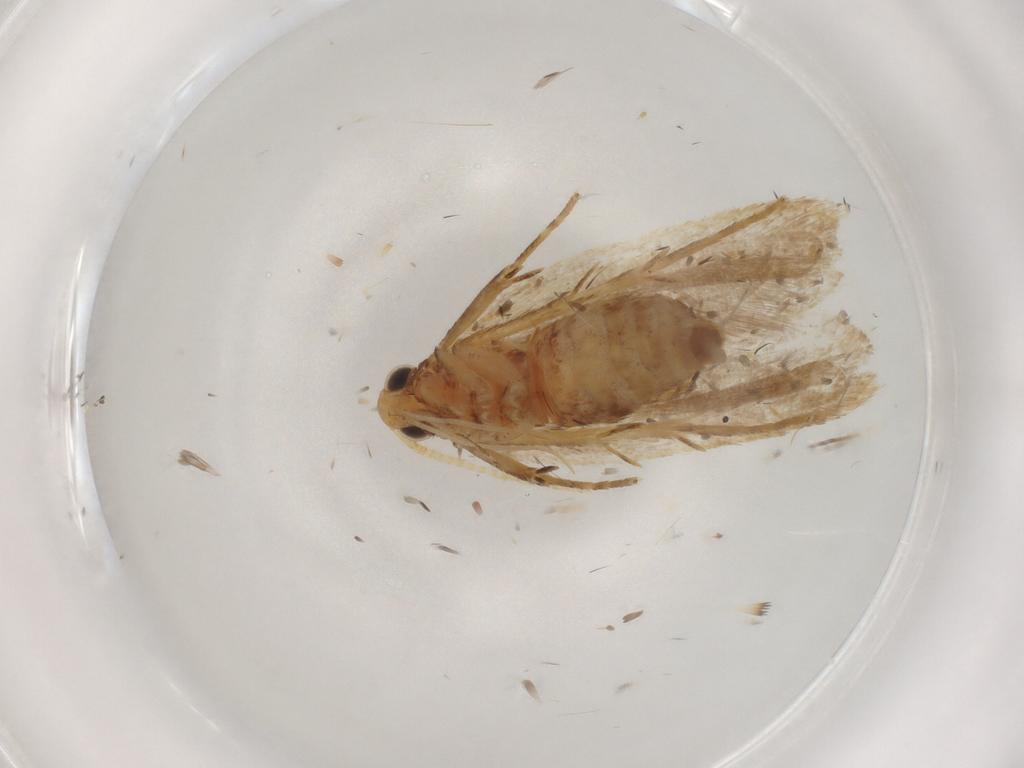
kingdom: Animalia
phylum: Arthropoda
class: Insecta
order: Lepidoptera
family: Lecithoceridae
